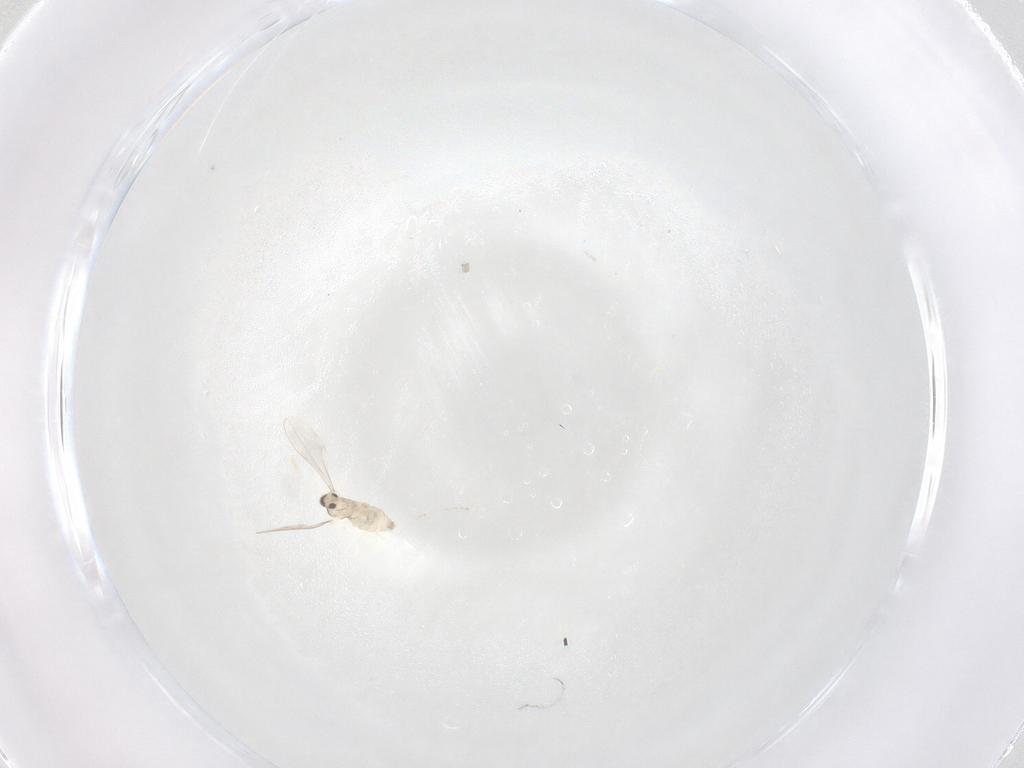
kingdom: Animalia
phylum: Arthropoda
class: Insecta
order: Diptera
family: Cecidomyiidae
